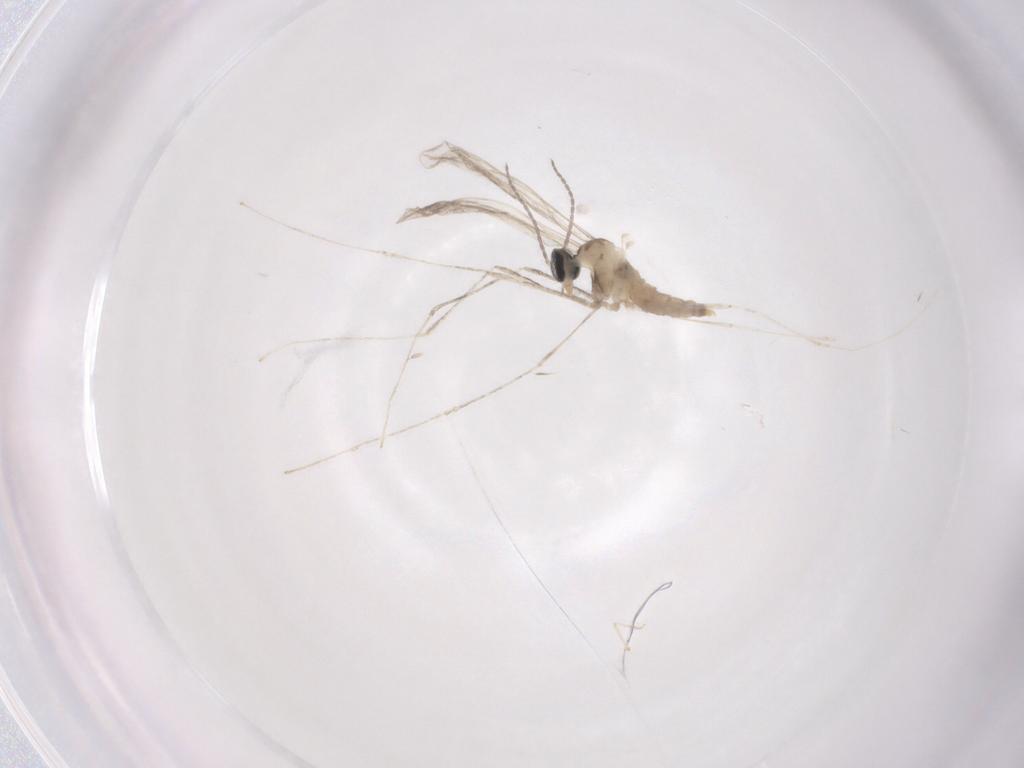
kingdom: Animalia
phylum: Arthropoda
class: Insecta
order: Diptera
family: Cecidomyiidae
